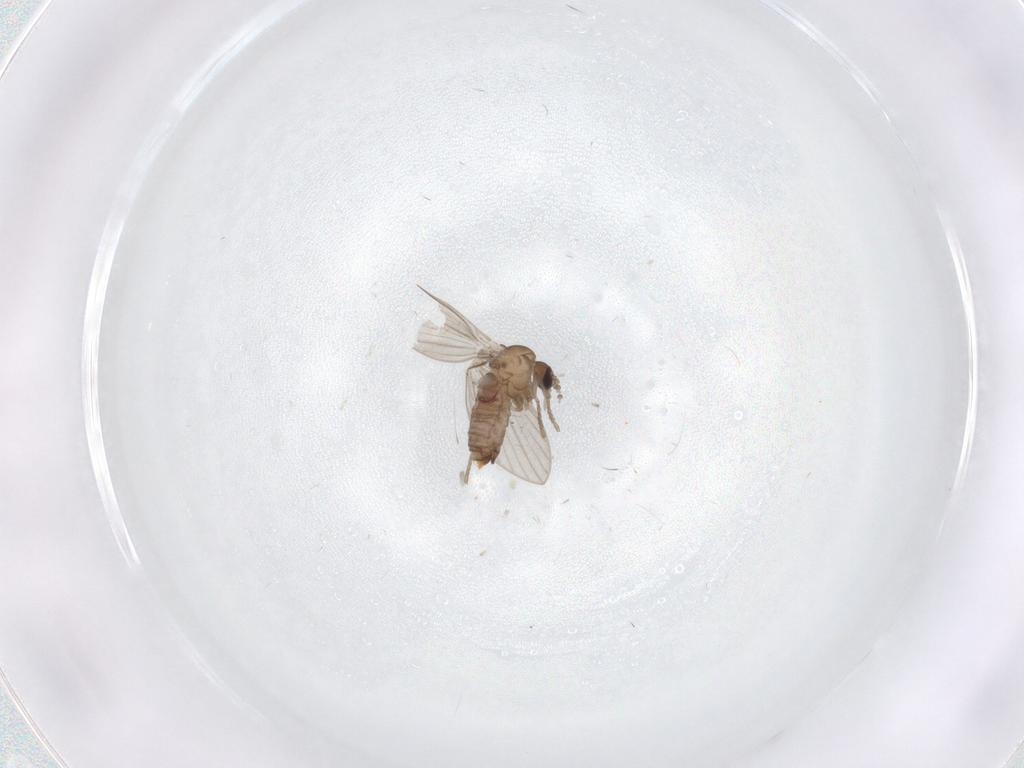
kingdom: Animalia
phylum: Arthropoda
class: Insecta
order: Diptera
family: Psychodidae
